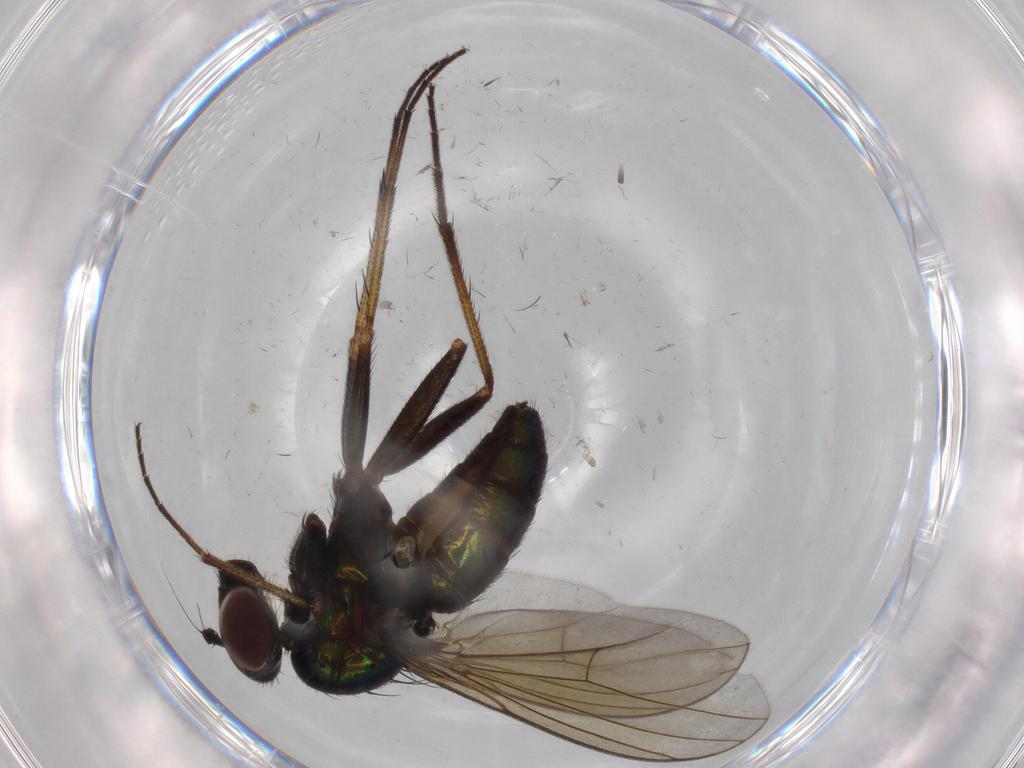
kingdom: Animalia
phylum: Arthropoda
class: Insecta
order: Diptera
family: Dolichopodidae
